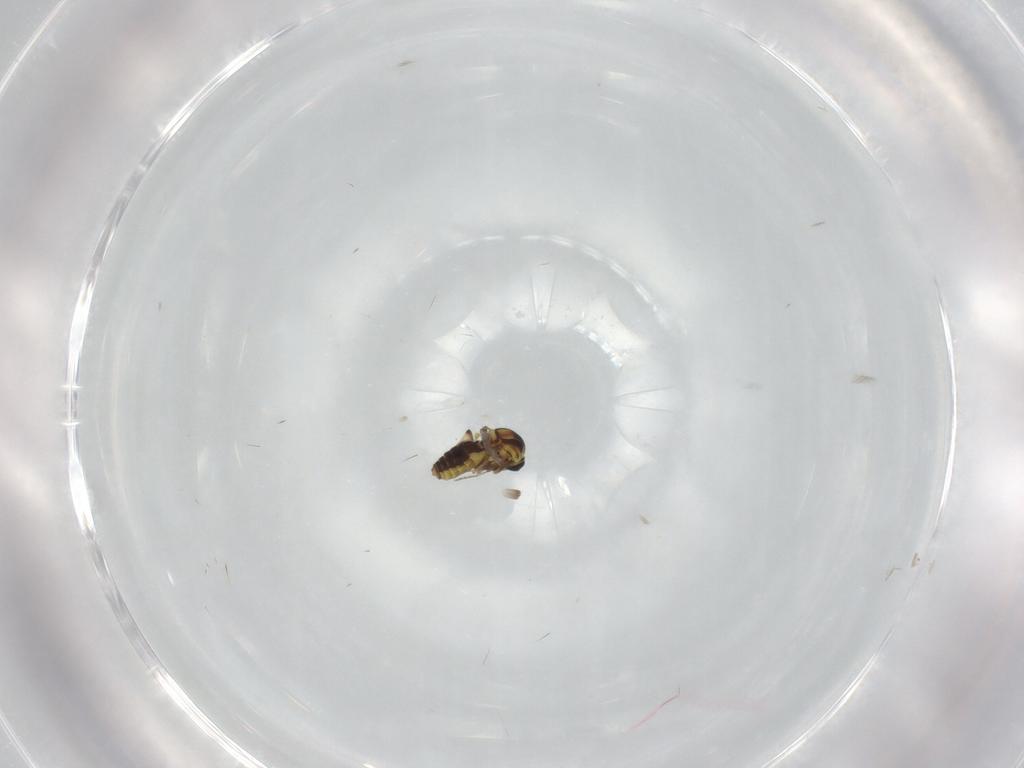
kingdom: Animalia
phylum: Arthropoda
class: Insecta
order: Diptera
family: Ceratopogonidae
